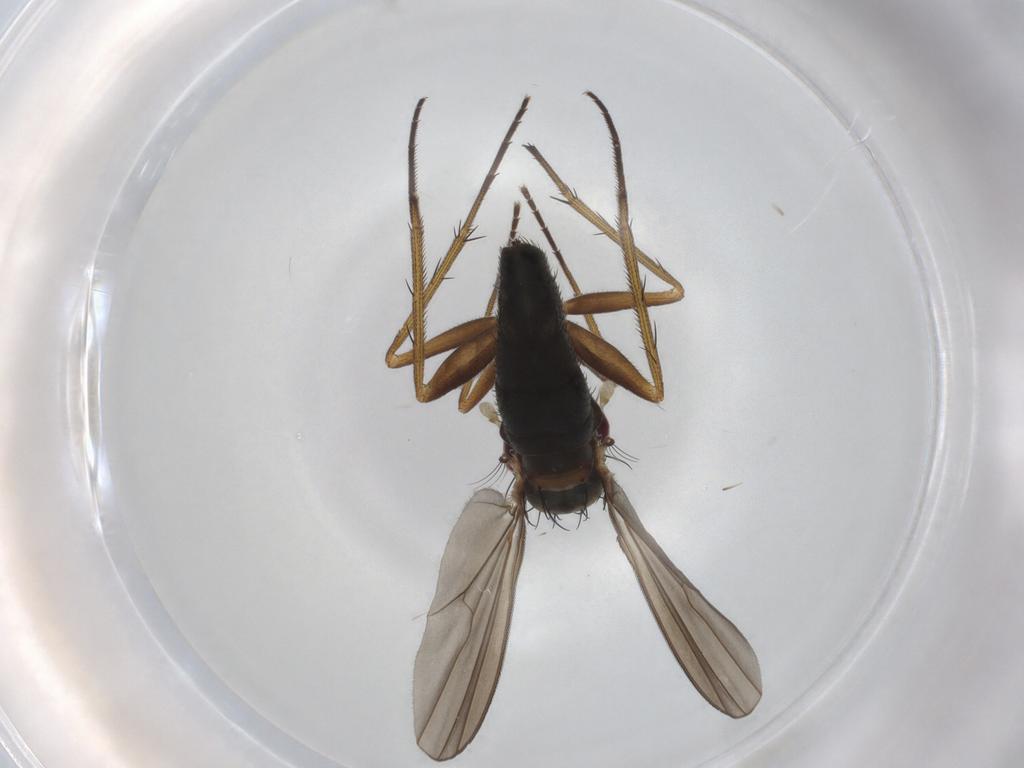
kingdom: Animalia
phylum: Arthropoda
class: Insecta
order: Diptera
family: Dolichopodidae
